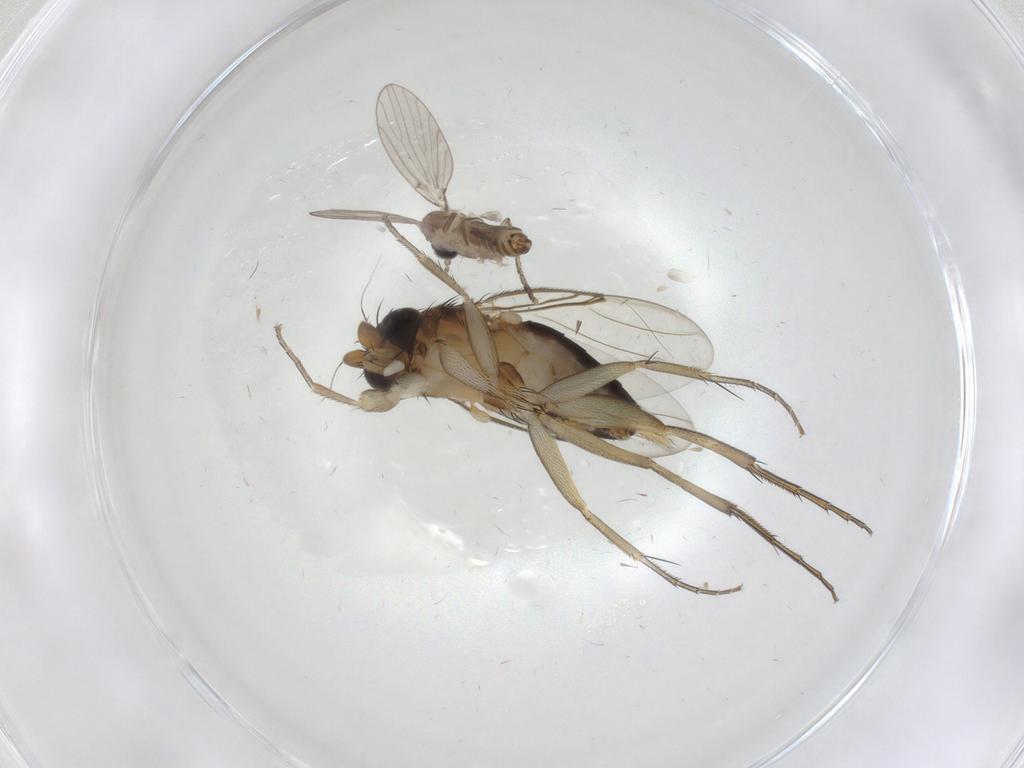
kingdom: Animalia
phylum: Arthropoda
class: Insecta
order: Diptera
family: Phoridae
